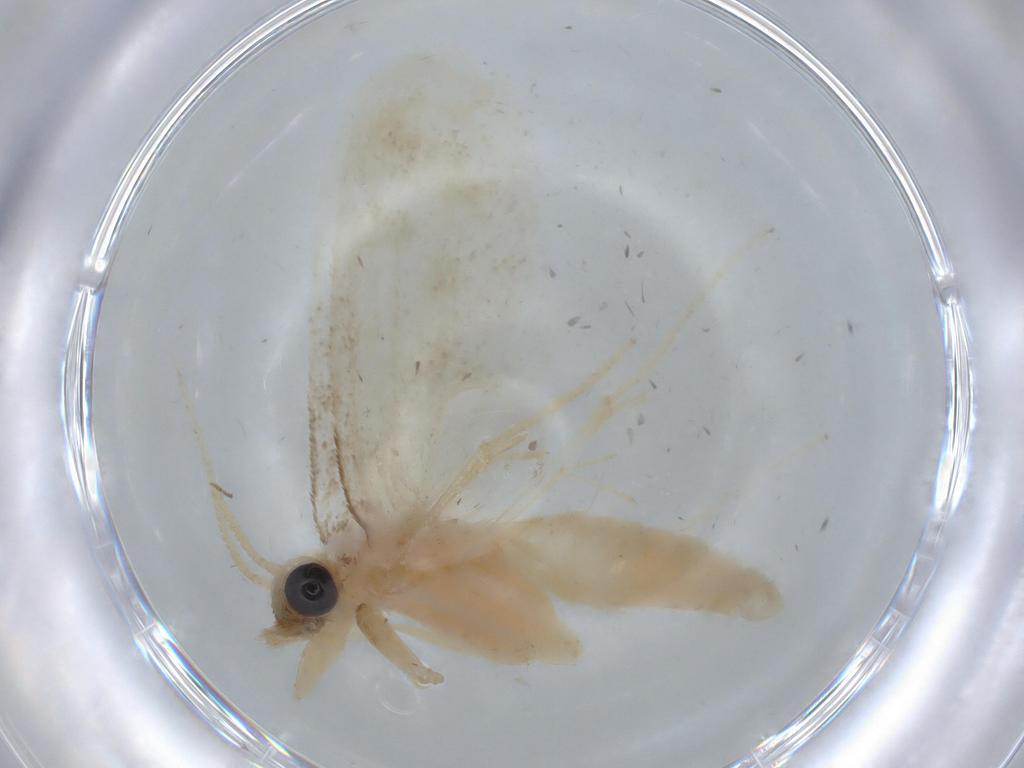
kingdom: Animalia
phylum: Arthropoda
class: Insecta
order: Lepidoptera
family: Crambidae
